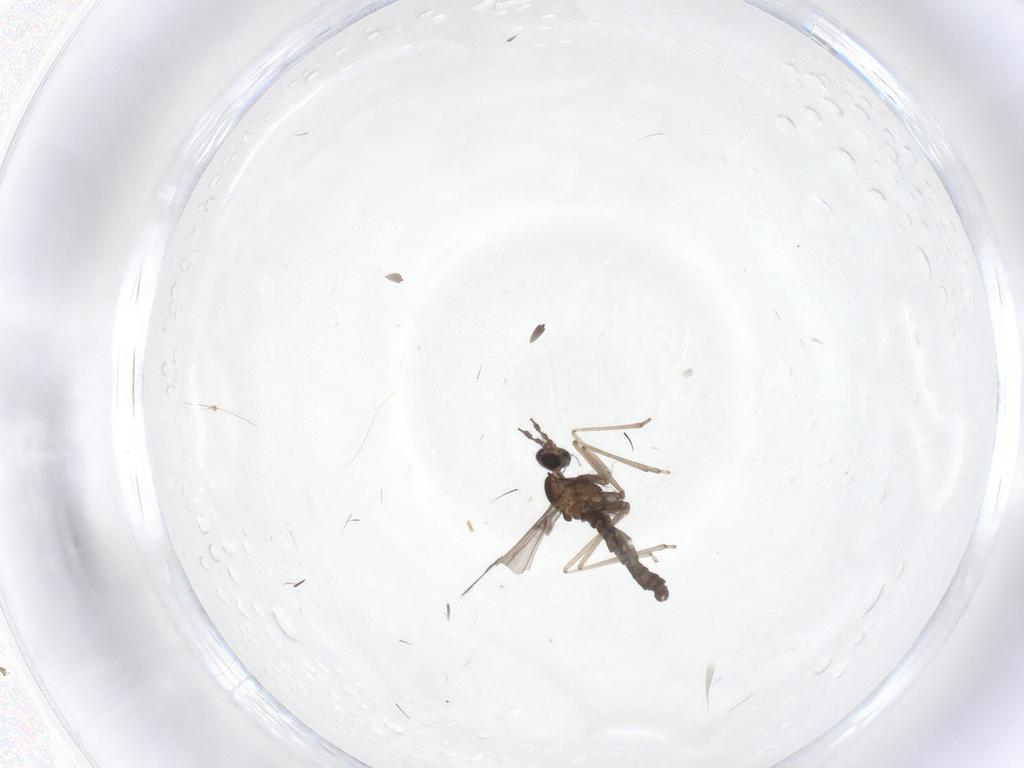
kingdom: Animalia
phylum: Arthropoda
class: Insecta
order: Diptera
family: Cecidomyiidae
